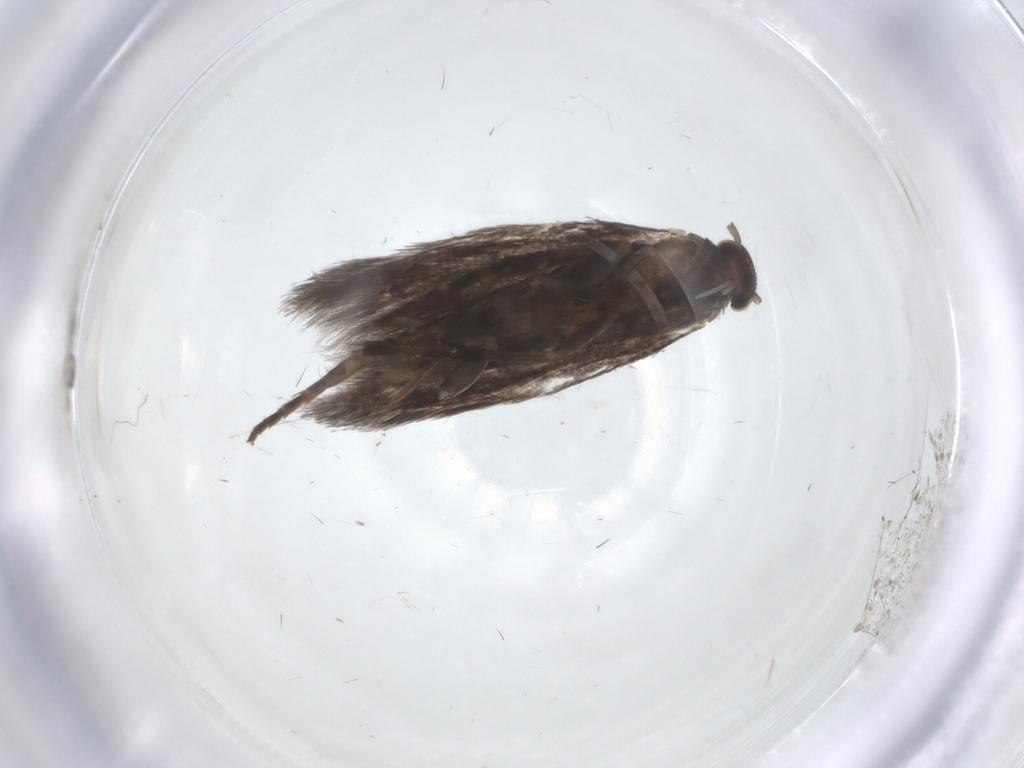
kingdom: Animalia
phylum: Arthropoda
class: Insecta
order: Lepidoptera
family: Elachistidae
